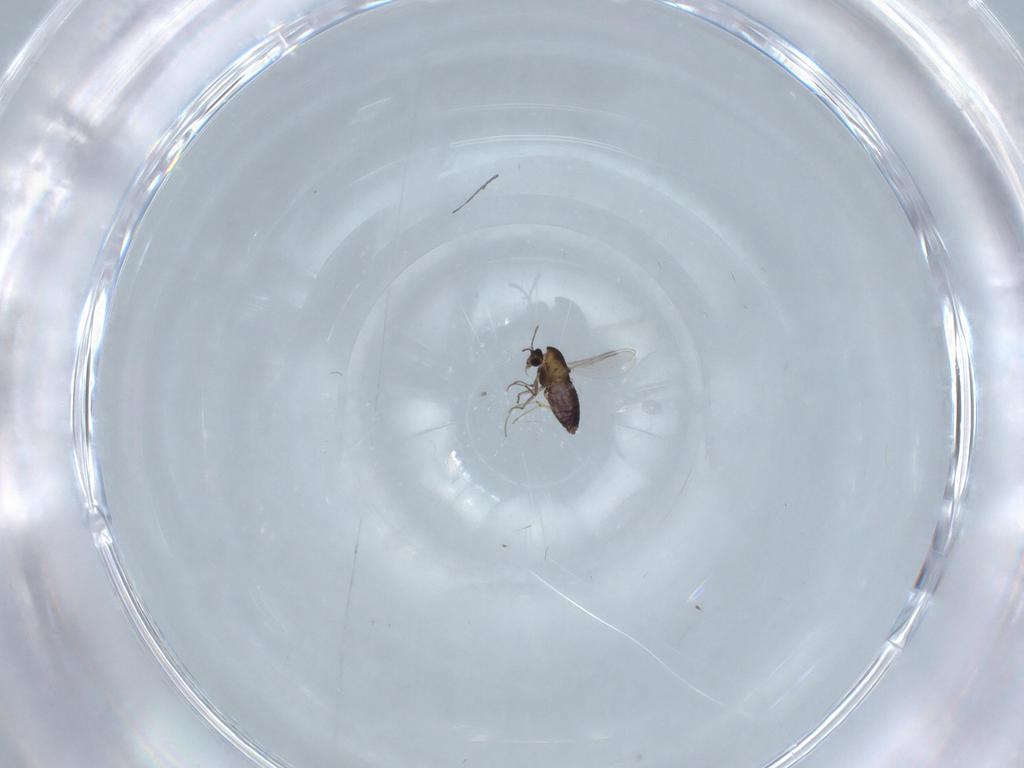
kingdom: Animalia
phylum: Arthropoda
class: Insecta
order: Diptera
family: Chironomidae
